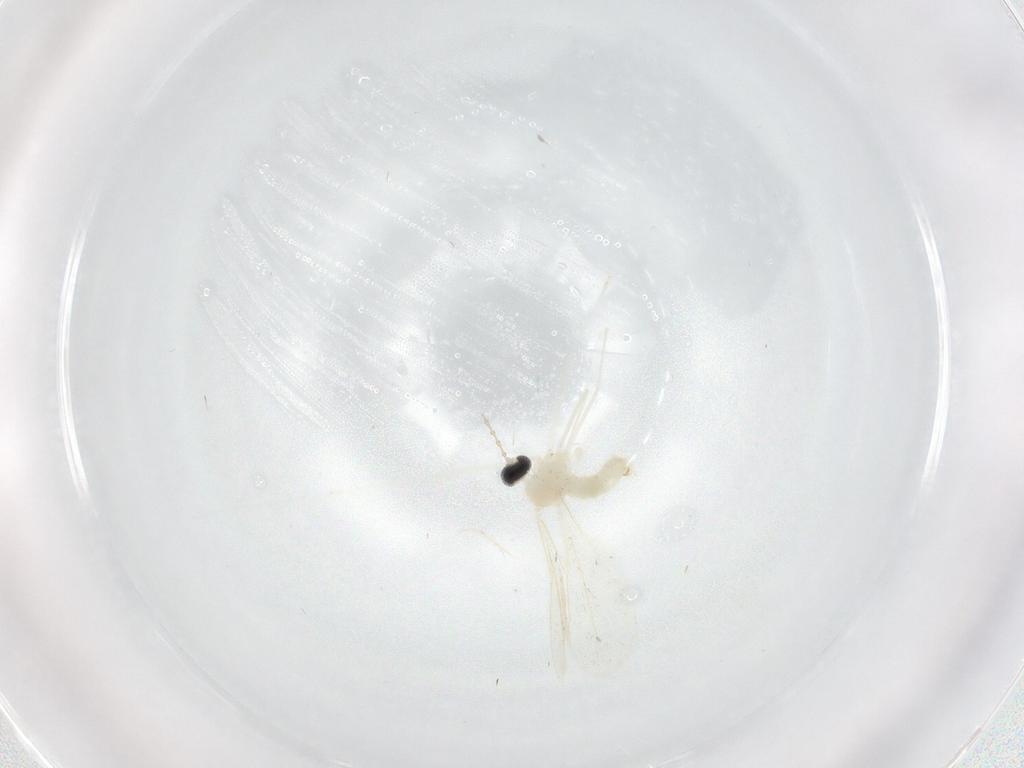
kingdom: Animalia
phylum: Arthropoda
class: Insecta
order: Diptera
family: Cecidomyiidae
